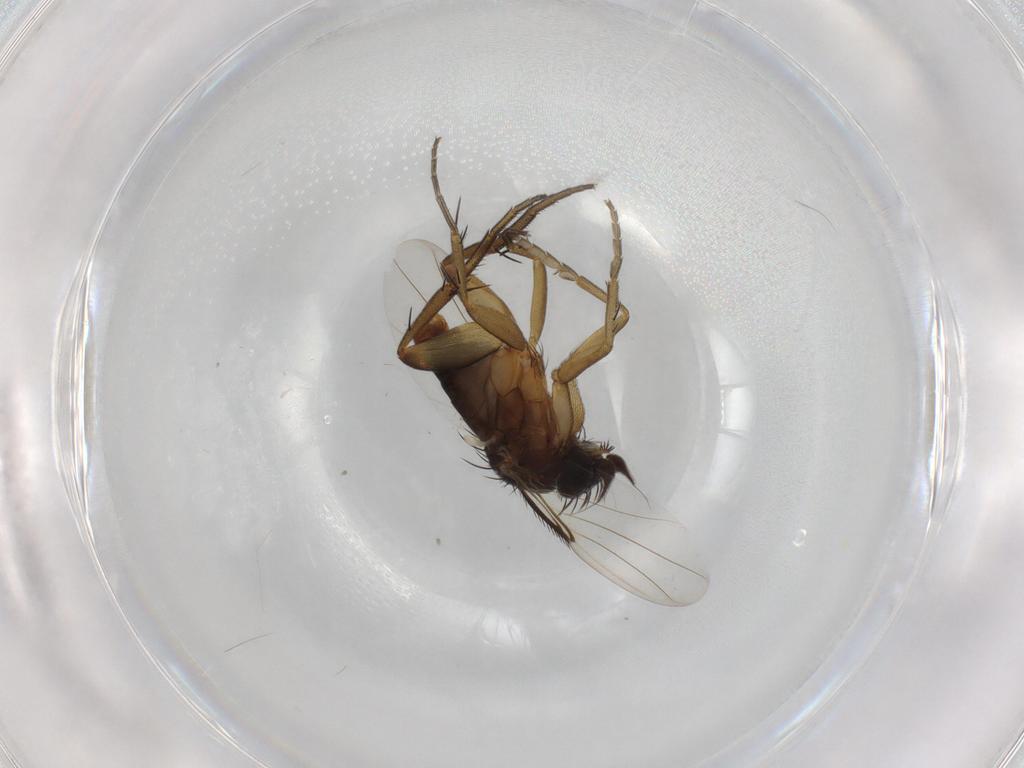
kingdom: Animalia
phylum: Arthropoda
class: Insecta
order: Diptera
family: Phoridae
